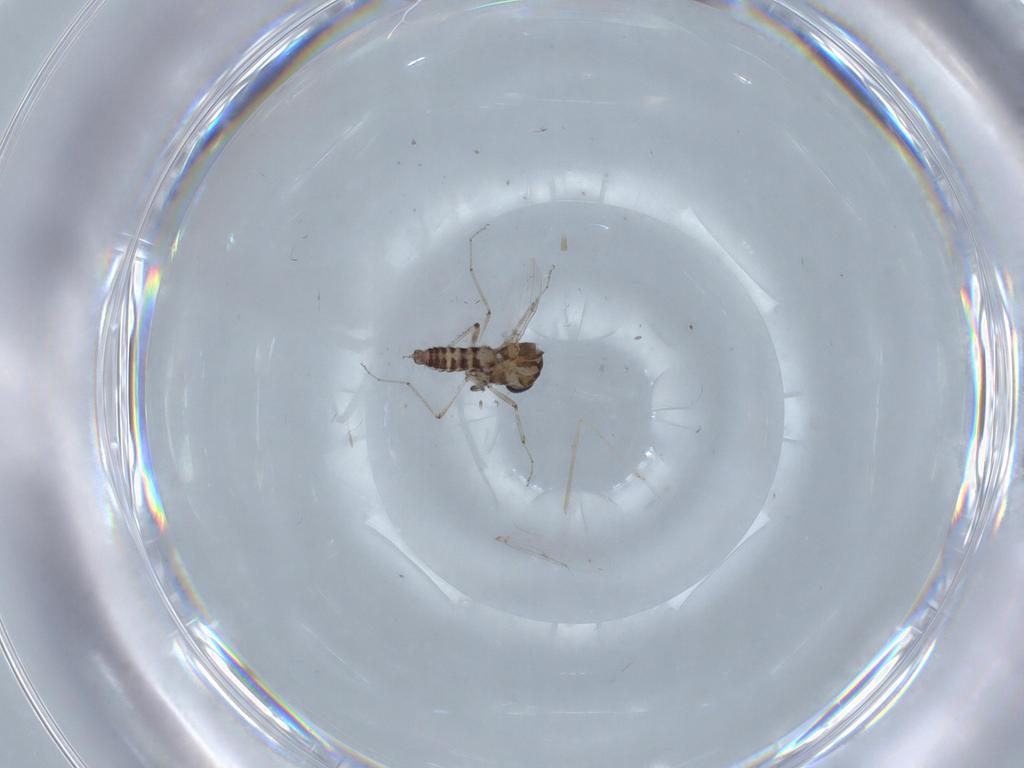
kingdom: Animalia
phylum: Arthropoda
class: Insecta
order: Diptera
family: Ceratopogonidae
